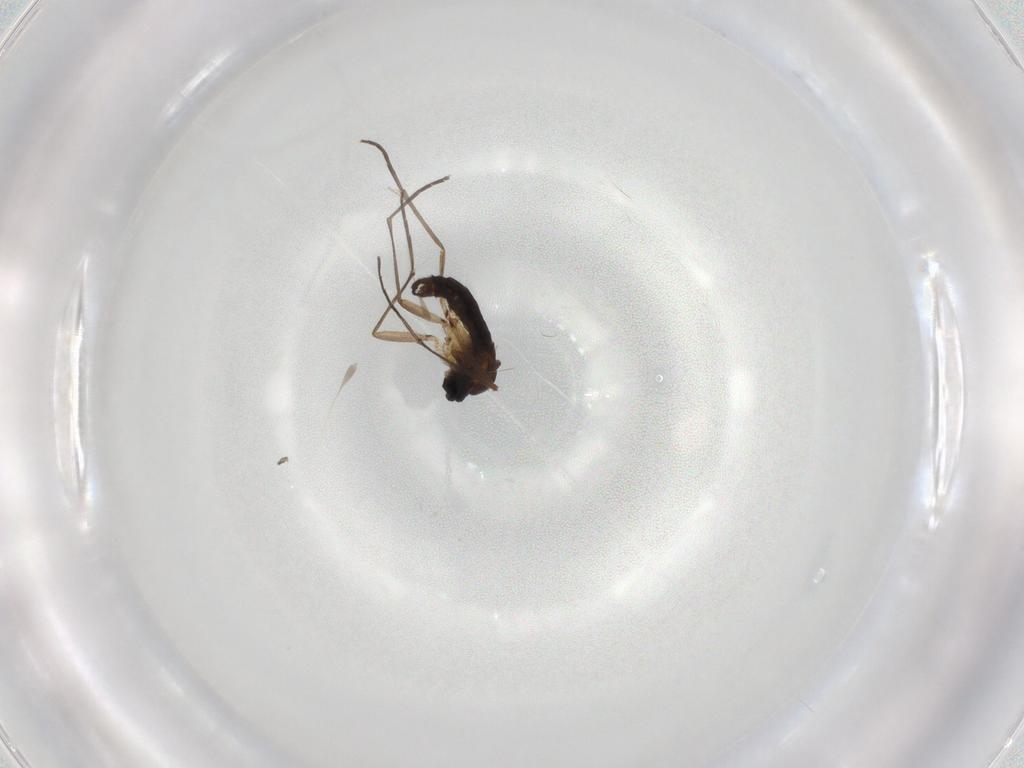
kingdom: Animalia
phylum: Arthropoda
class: Insecta
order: Diptera
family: Sciaridae
